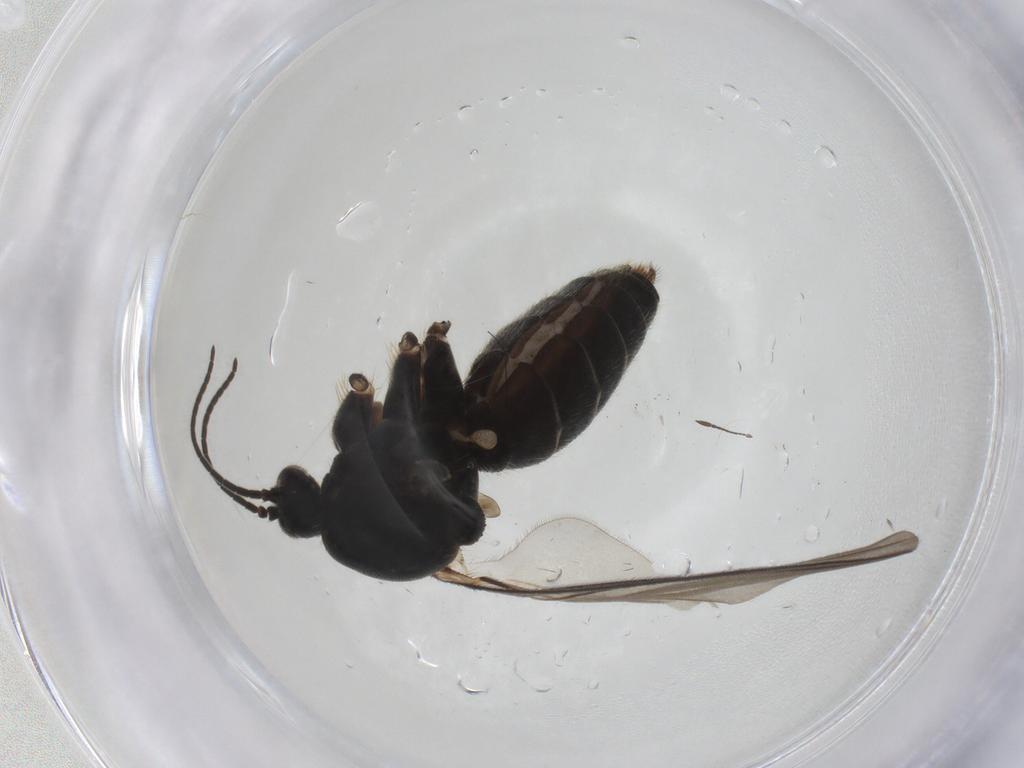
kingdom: Animalia
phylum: Arthropoda
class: Insecta
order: Diptera
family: Mycetophilidae
